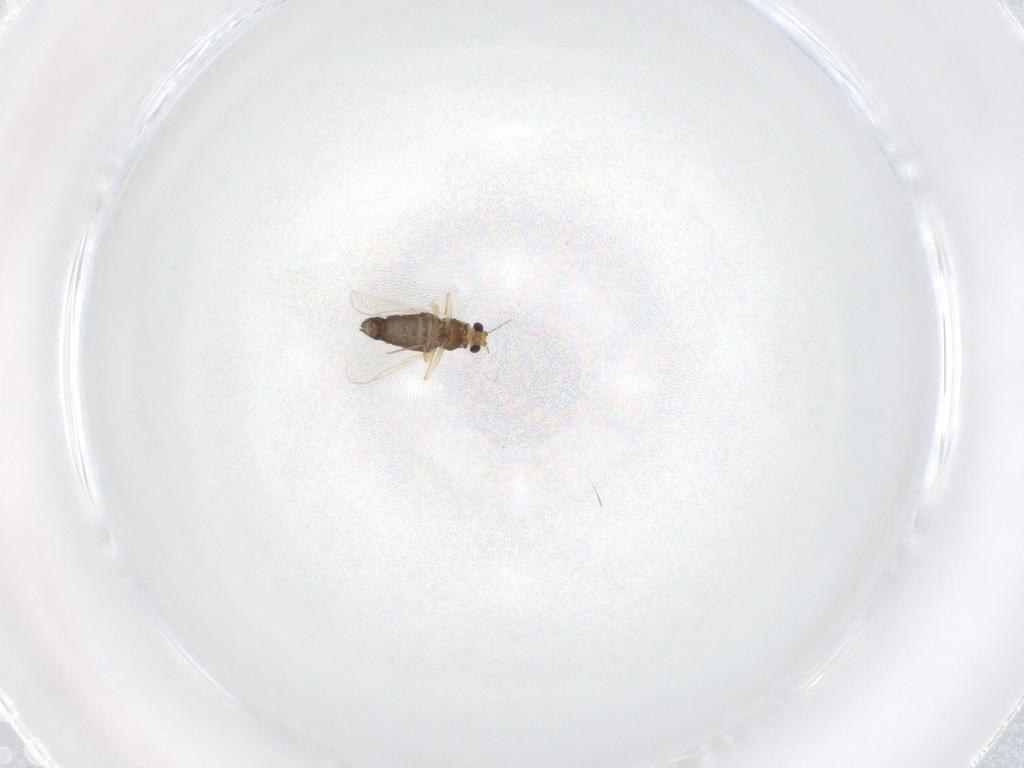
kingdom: Animalia
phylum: Arthropoda
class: Insecta
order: Diptera
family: Chironomidae
